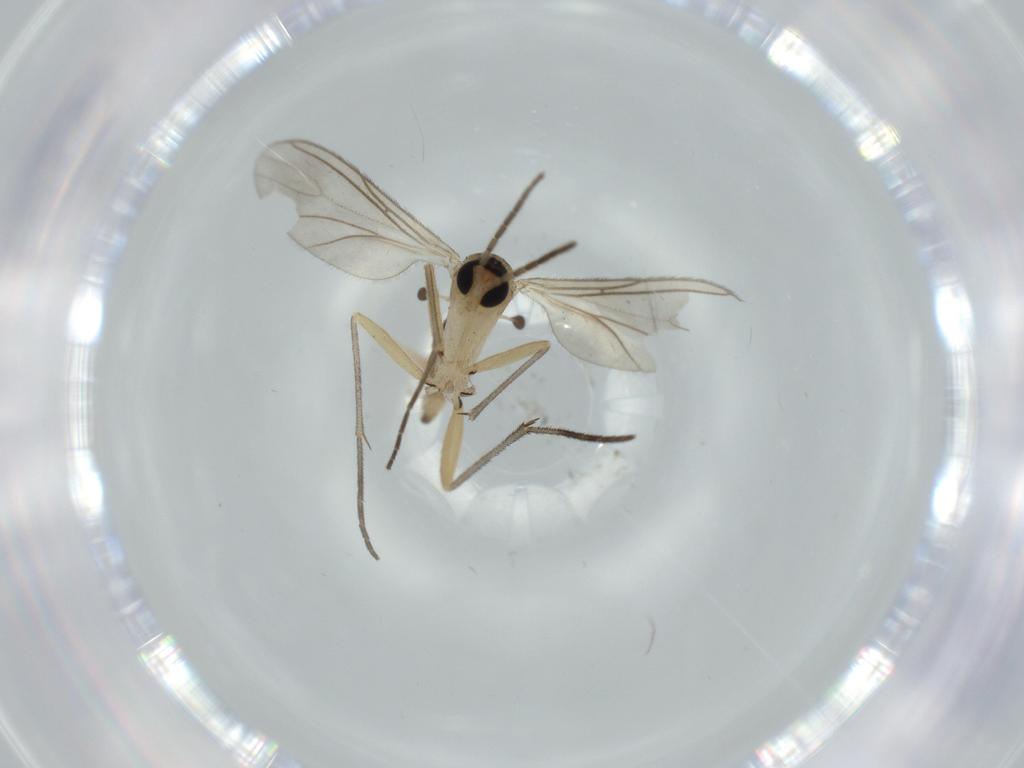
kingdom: Animalia
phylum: Arthropoda
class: Insecta
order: Diptera
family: Sciaridae
